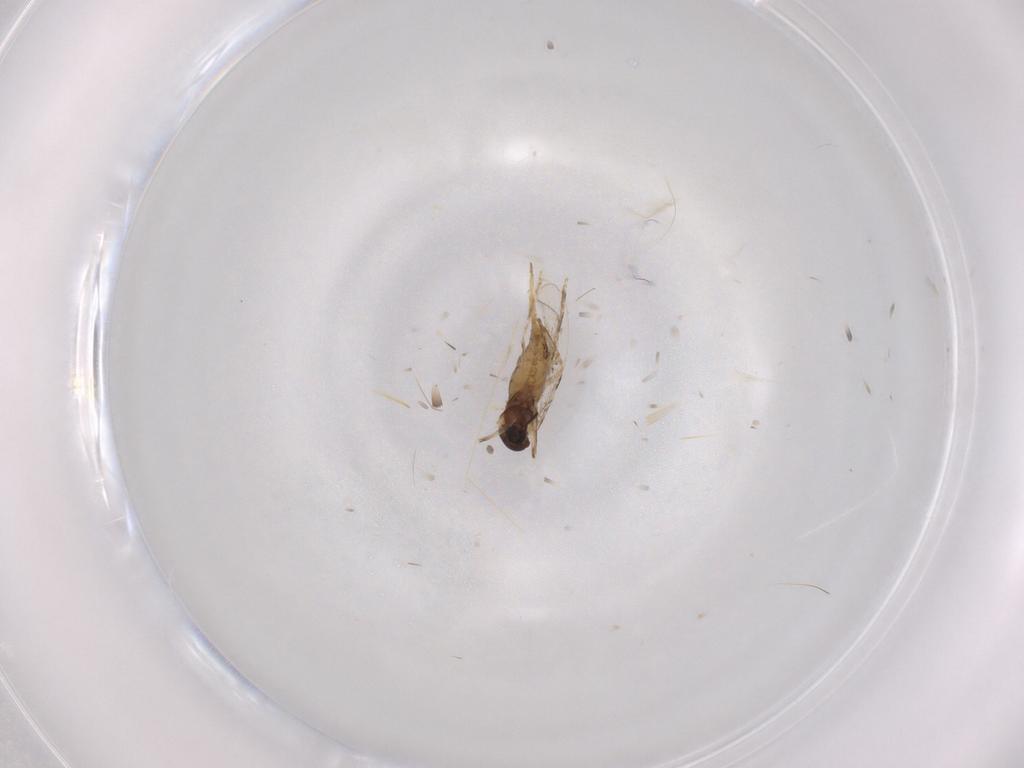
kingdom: Animalia
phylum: Arthropoda
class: Insecta
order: Diptera
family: Cecidomyiidae
